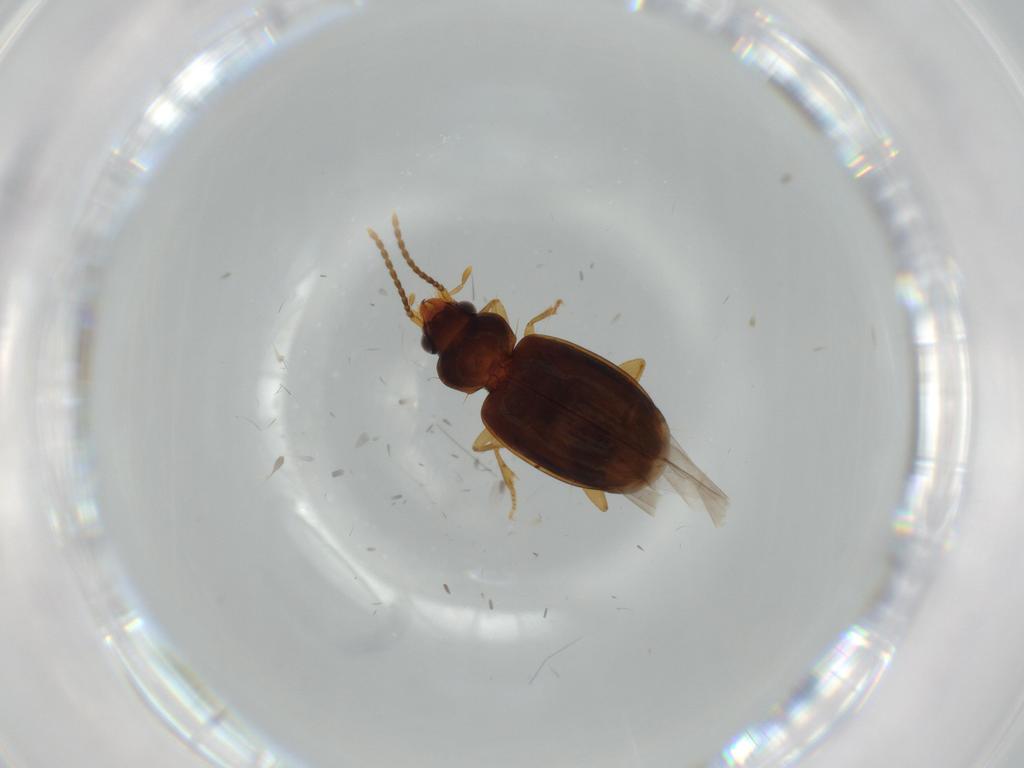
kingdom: Animalia
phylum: Arthropoda
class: Insecta
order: Coleoptera
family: Carabidae
